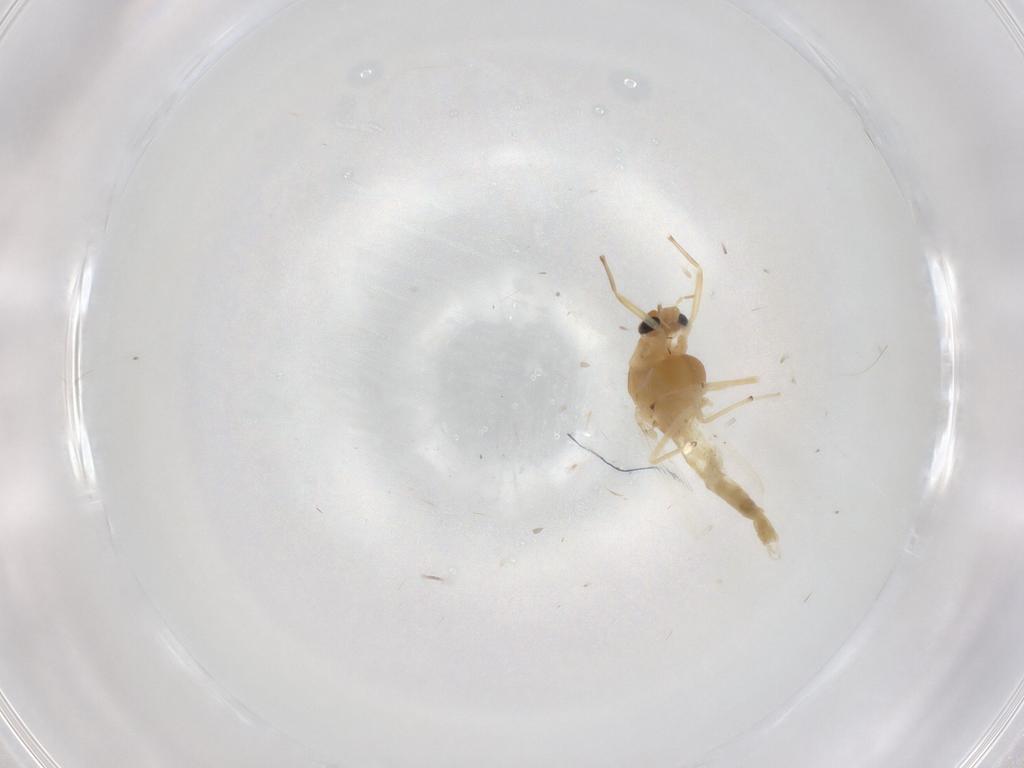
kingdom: Animalia
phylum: Arthropoda
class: Insecta
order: Diptera
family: Chironomidae
